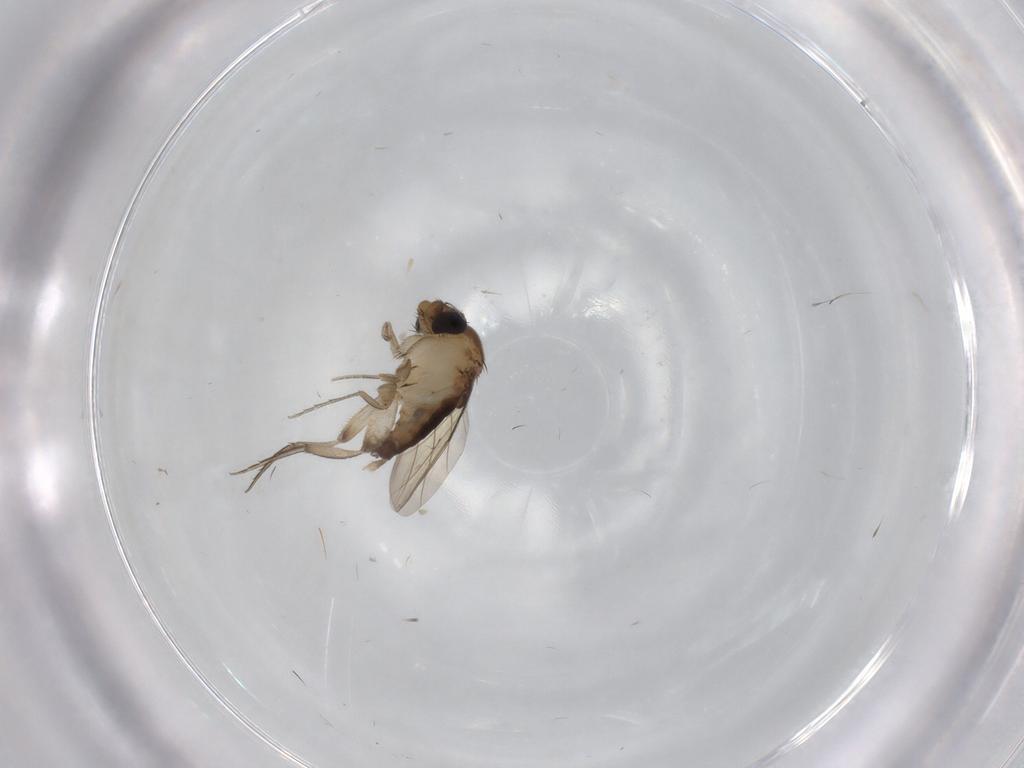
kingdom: Animalia
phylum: Arthropoda
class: Insecta
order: Diptera
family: Phoridae
